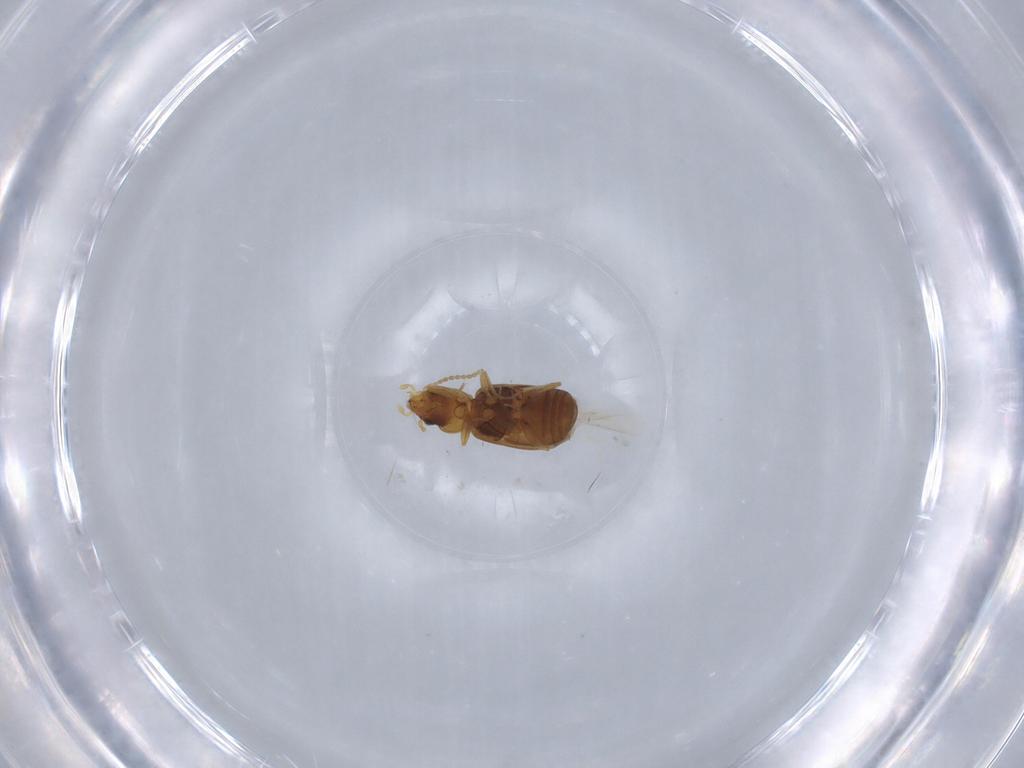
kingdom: Animalia
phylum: Arthropoda
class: Insecta
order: Coleoptera
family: Carabidae
